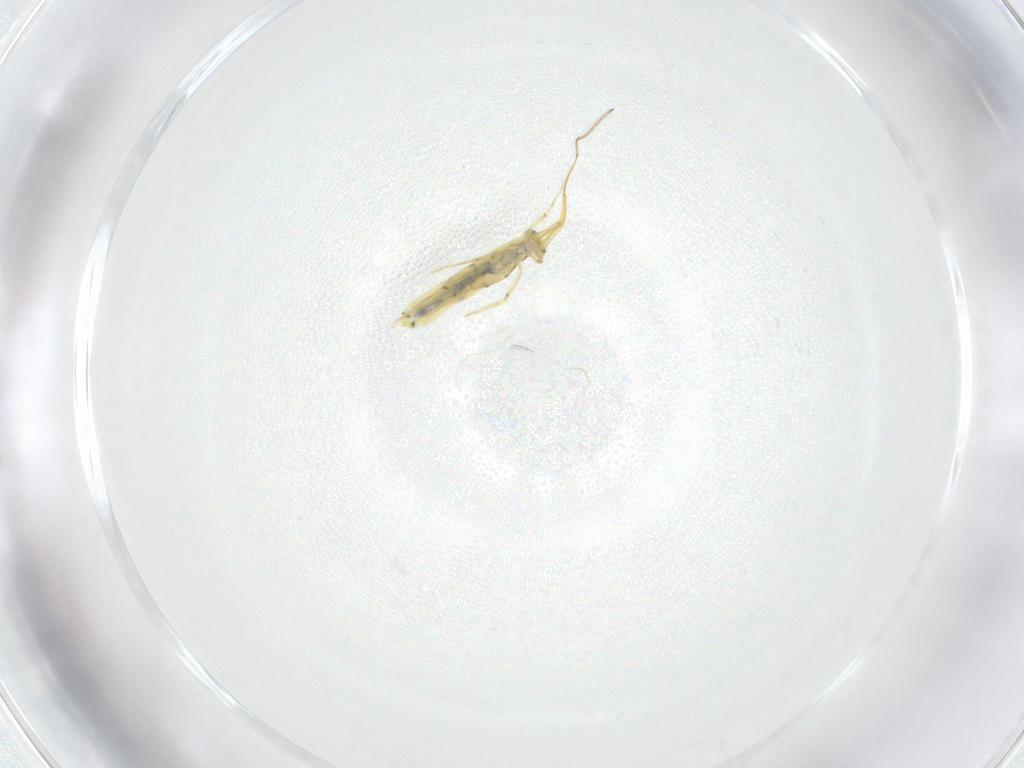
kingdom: Animalia
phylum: Arthropoda
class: Collembola
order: Entomobryomorpha
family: Entomobryidae
